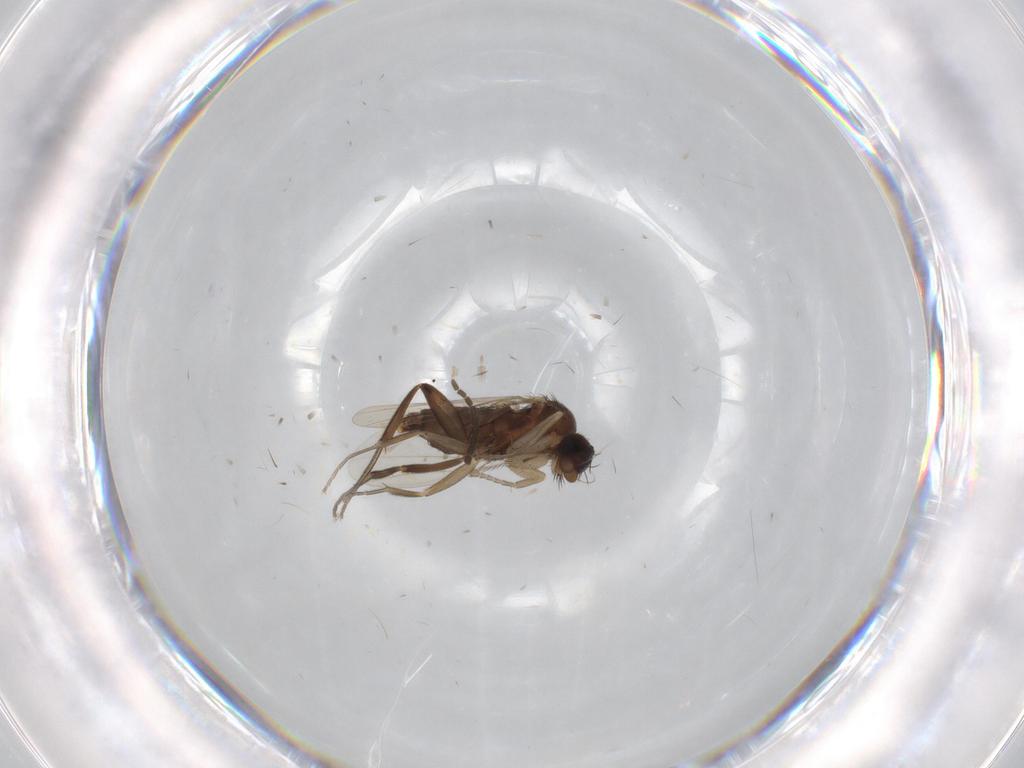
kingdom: Animalia
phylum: Arthropoda
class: Insecta
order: Diptera
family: Sciaridae
